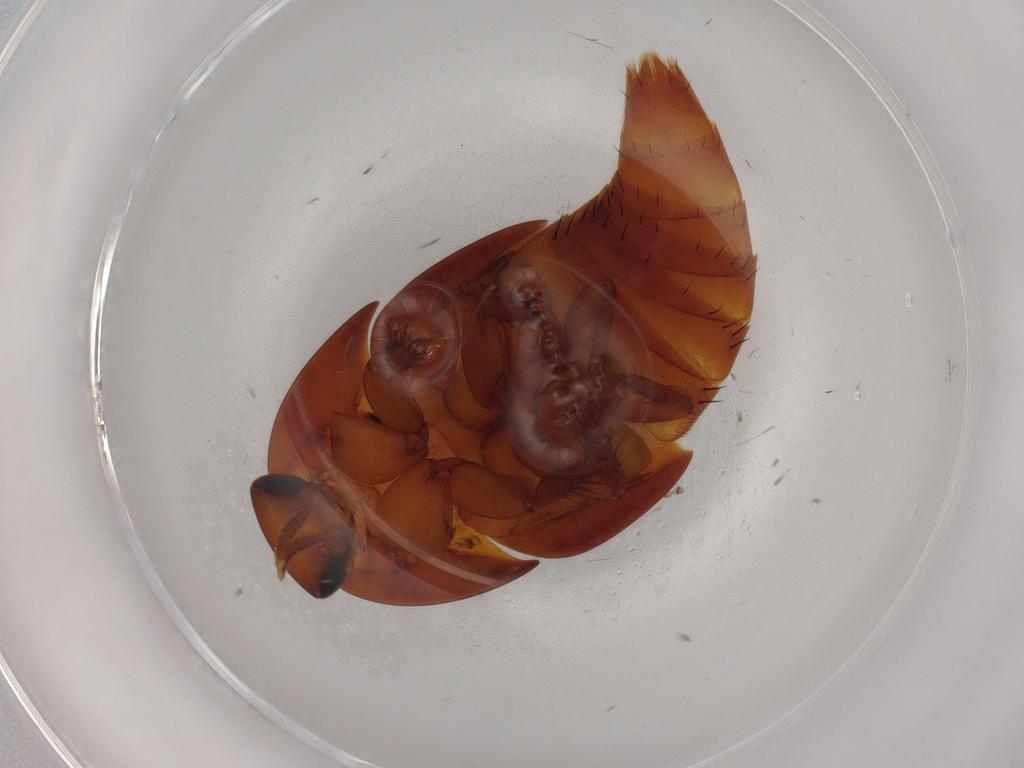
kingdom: Animalia
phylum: Arthropoda
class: Insecta
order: Coleoptera
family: Staphylinidae
